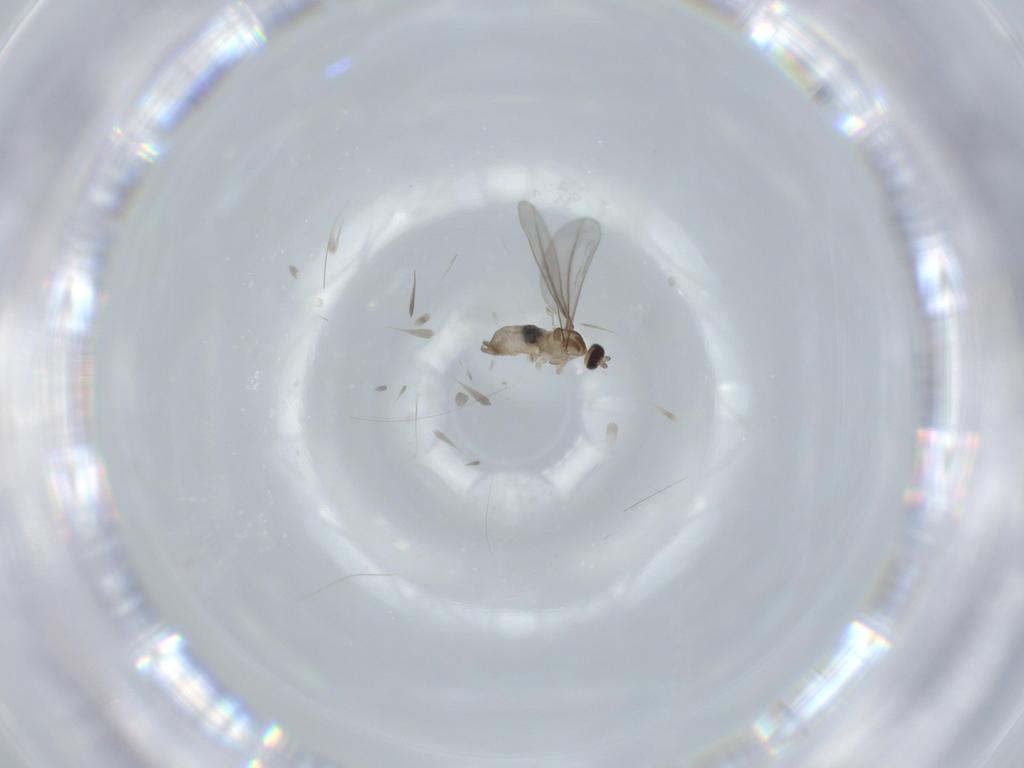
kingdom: Animalia
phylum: Arthropoda
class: Insecta
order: Diptera
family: Cecidomyiidae
